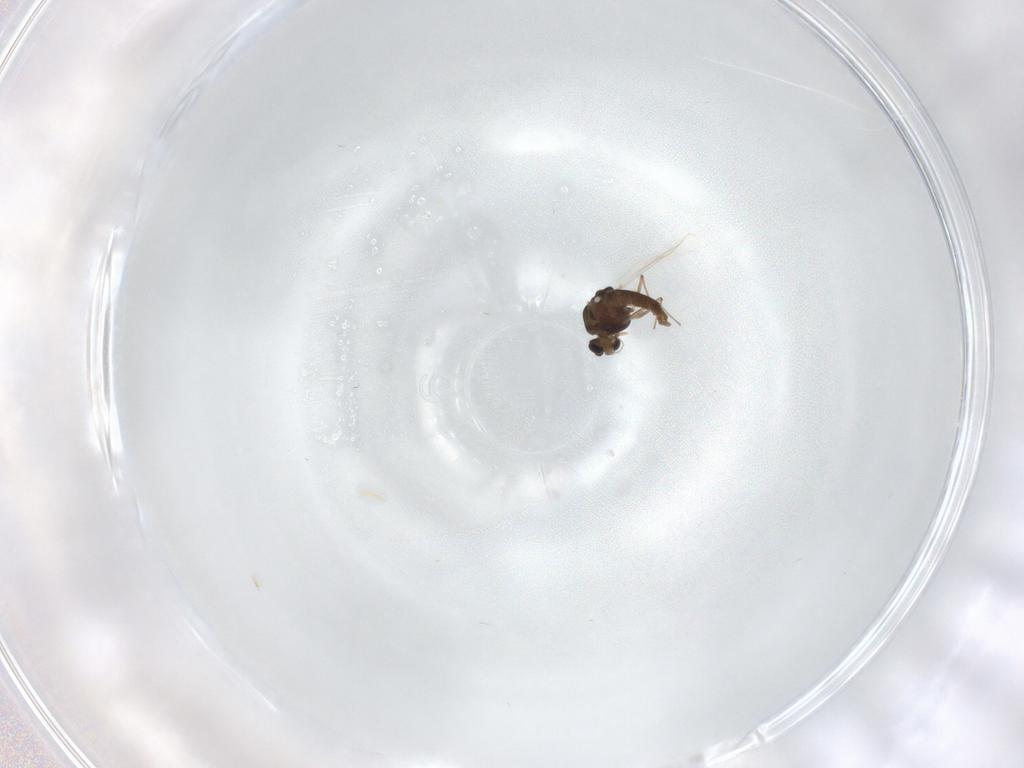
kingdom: Animalia
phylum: Arthropoda
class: Insecta
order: Diptera
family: Chironomidae
